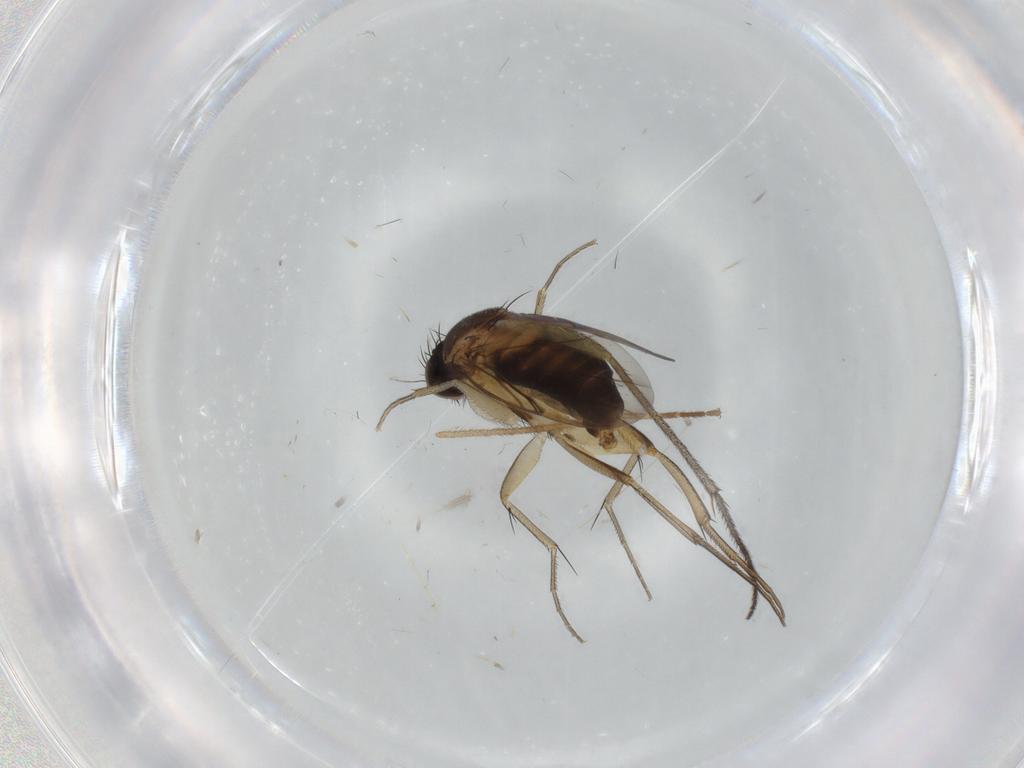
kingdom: Animalia
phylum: Arthropoda
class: Insecta
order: Diptera
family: Sciaridae
